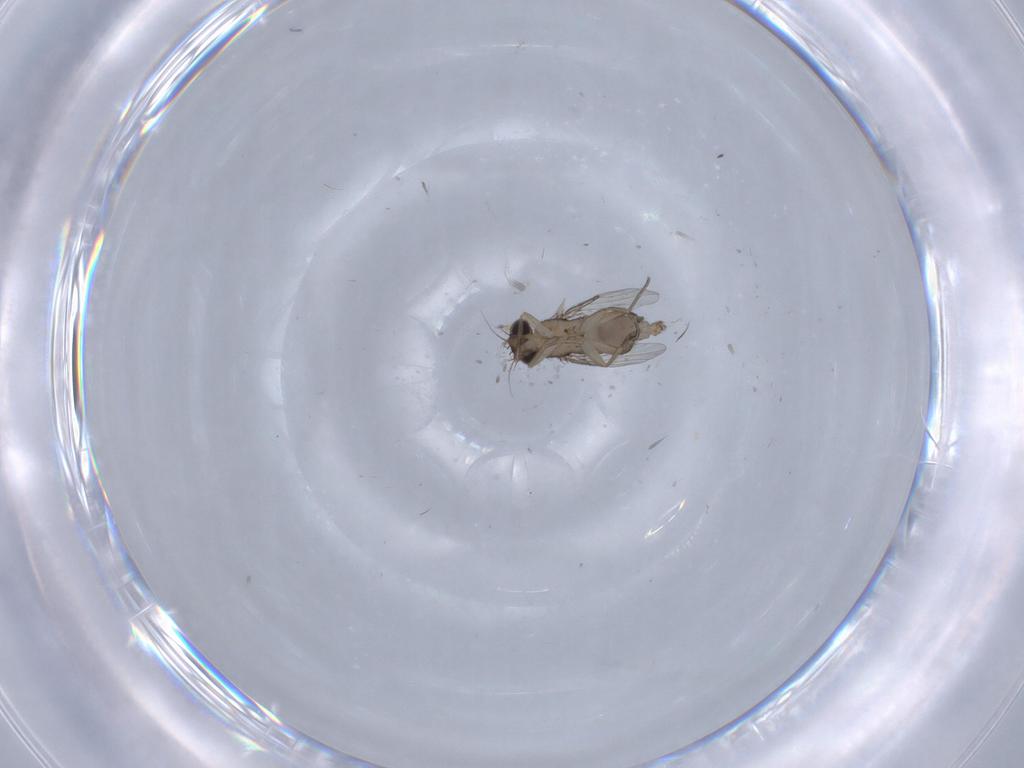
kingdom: Animalia
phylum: Arthropoda
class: Insecta
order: Diptera
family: Phoridae
